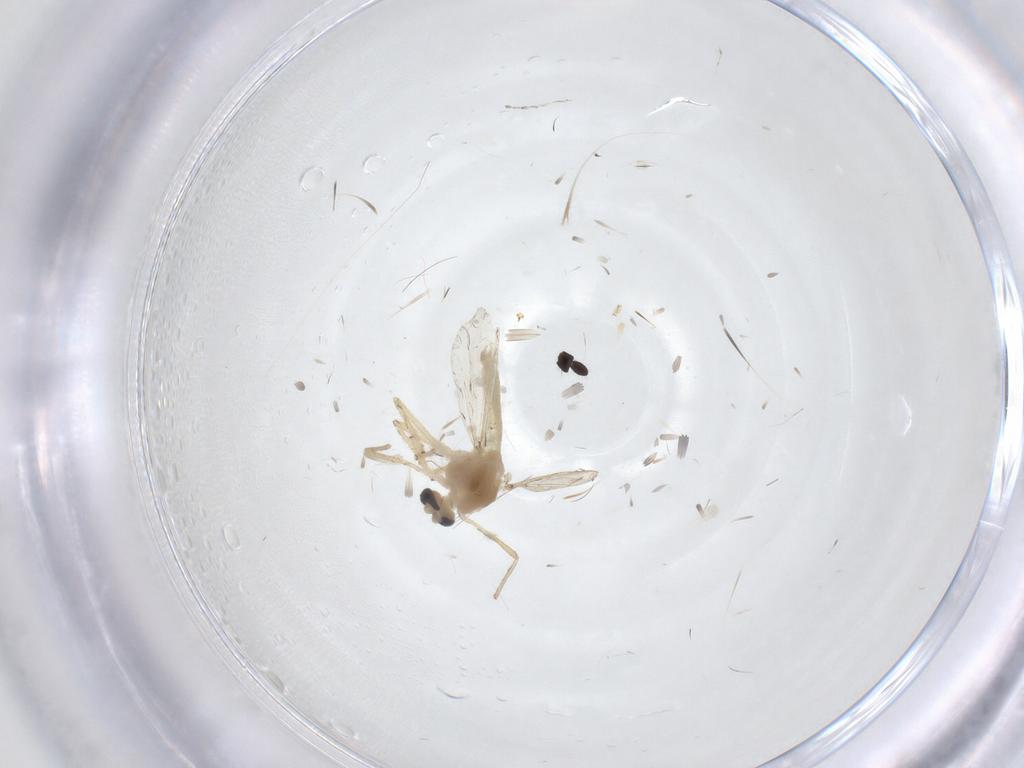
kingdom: Animalia
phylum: Arthropoda
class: Insecta
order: Diptera
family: Chironomidae
